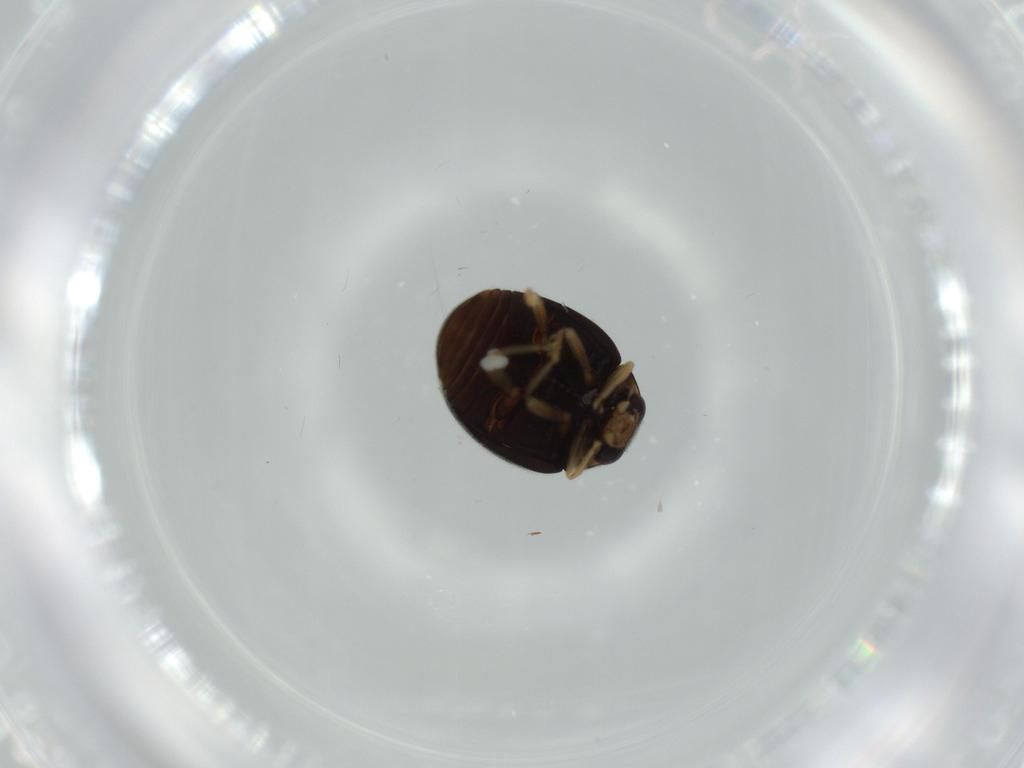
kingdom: Animalia
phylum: Arthropoda
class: Insecta
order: Coleoptera
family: Coccinellidae
